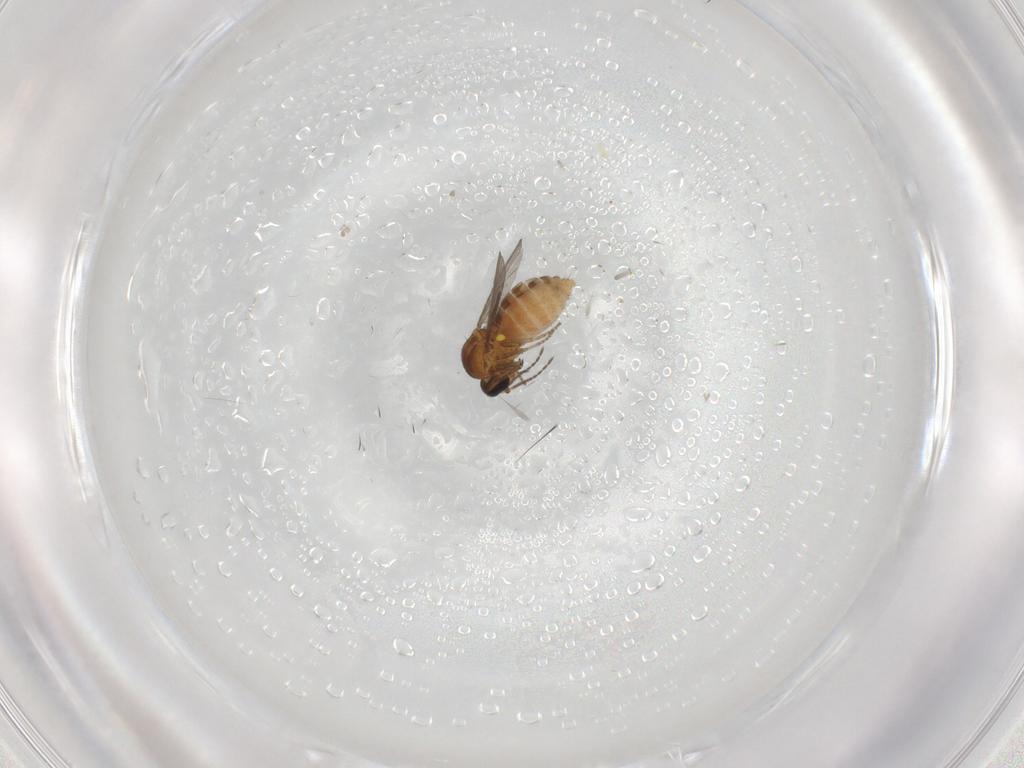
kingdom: Animalia
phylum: Arthropoda
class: Insecta
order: Diptera
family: Ceratopogonidae
